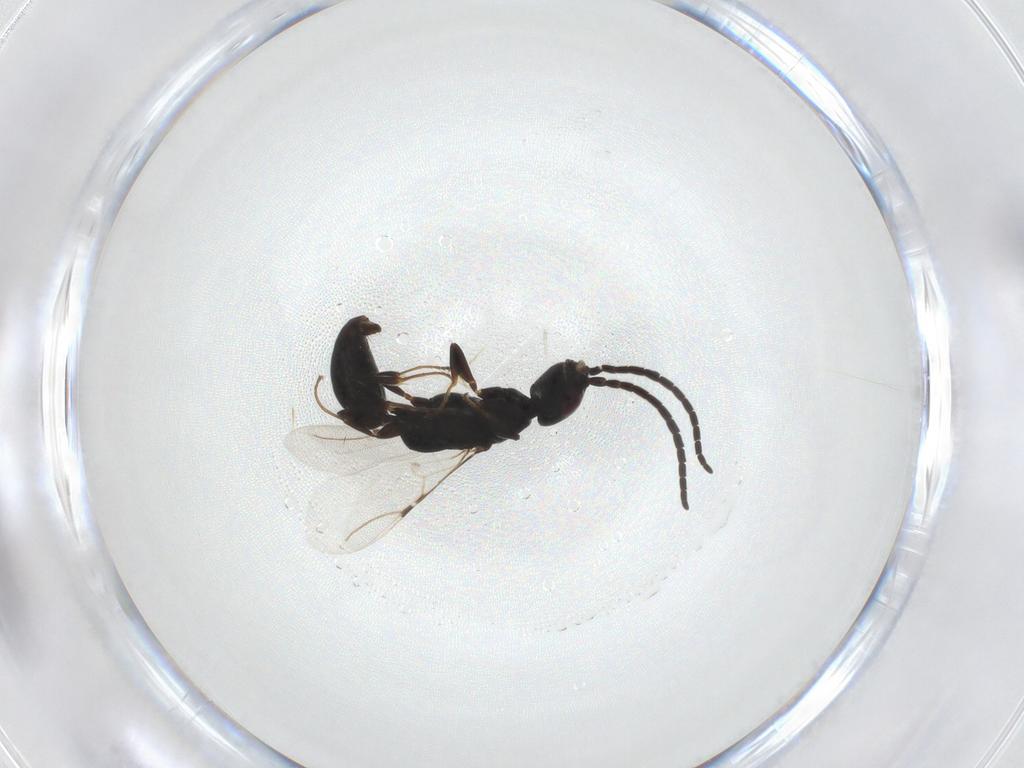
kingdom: Animalia
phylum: Arthropoda
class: Insecta
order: Hymenoptera
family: Bethylidae
